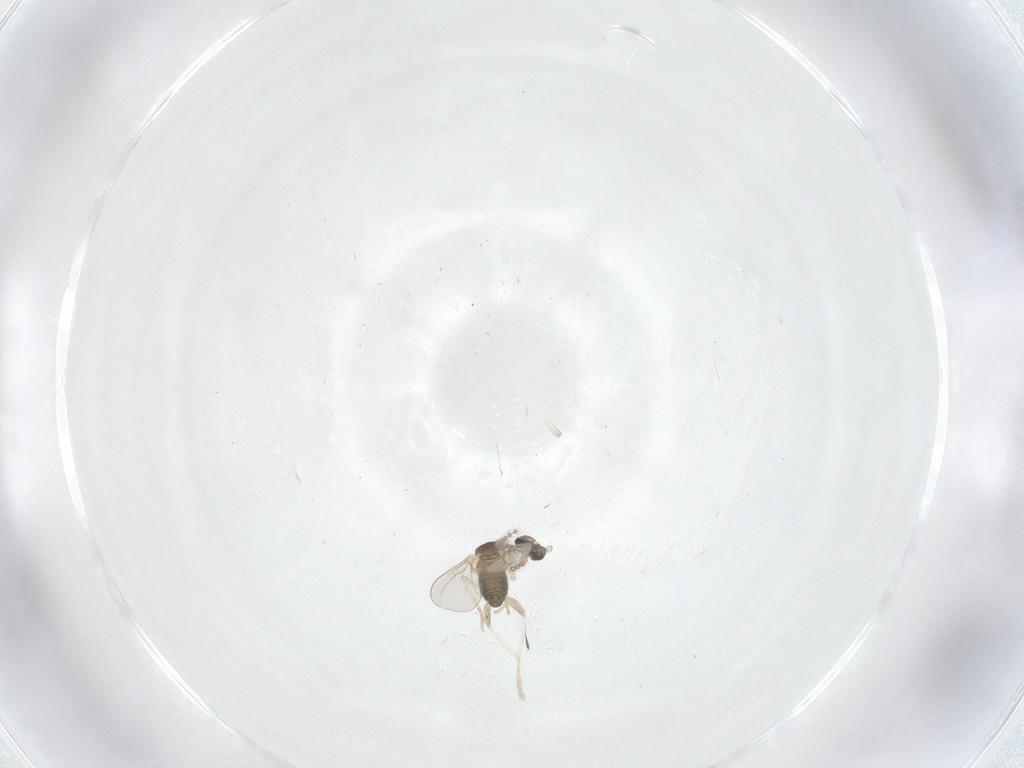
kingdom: Animalia
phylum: Arthropoda
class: Insecta
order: Diptera
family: Cecidomyiidae
